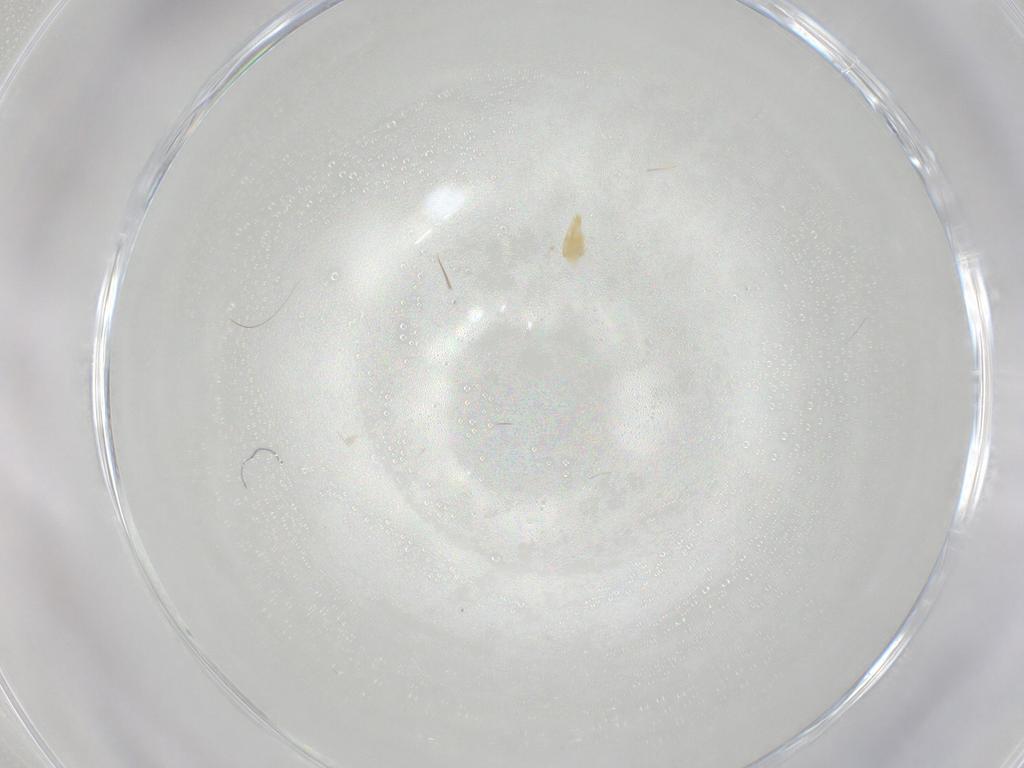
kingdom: Animalia
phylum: Arthropoda
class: Arachnida
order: Trombidiformes
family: Eupodidae
